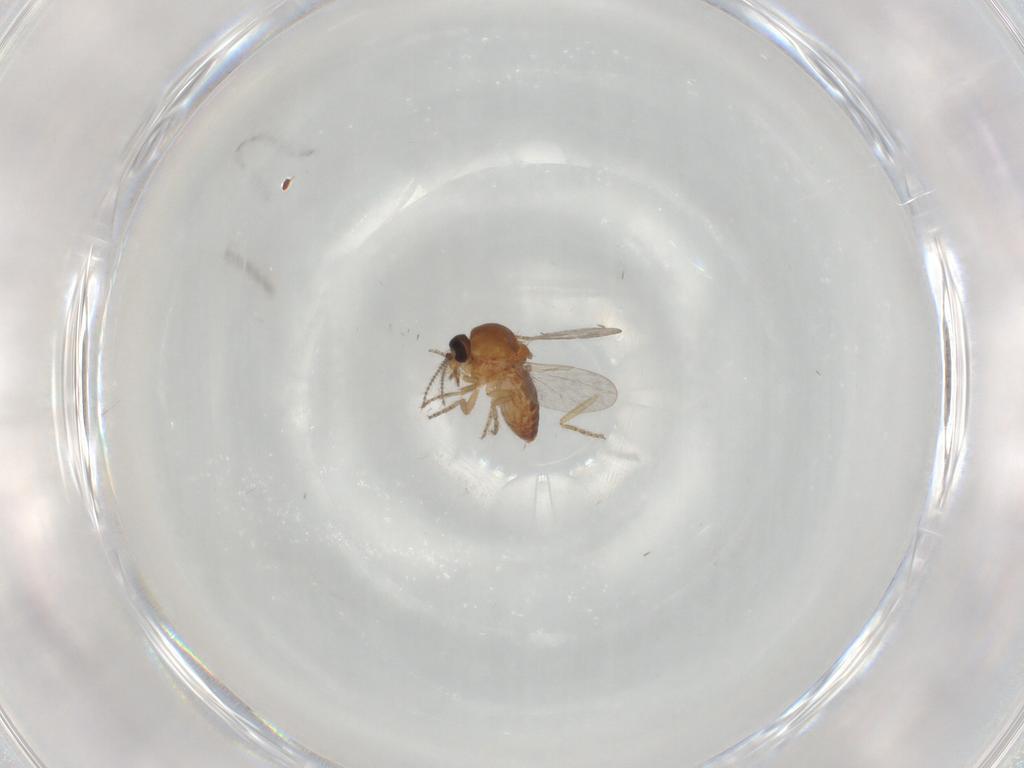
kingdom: Animalia
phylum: Arthropoda
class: Insecta
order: Diptera
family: Ceratopogonidae
